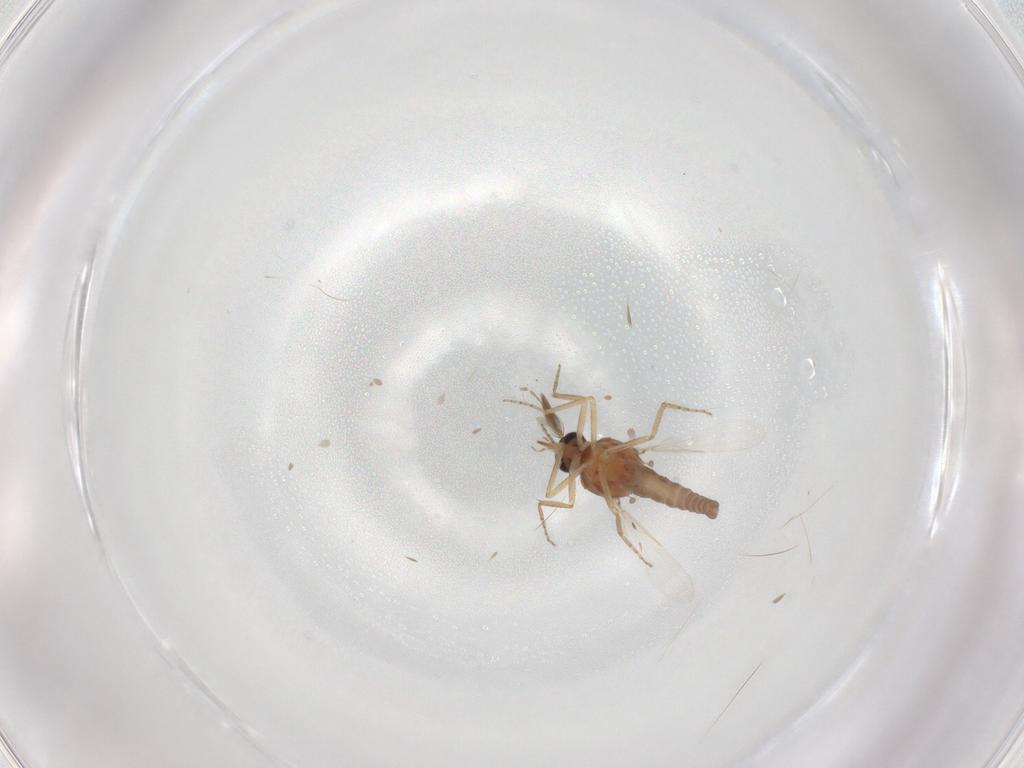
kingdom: Animalia
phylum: Arthropoda
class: Insecta
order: Diptera
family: Ceratopogonidae
